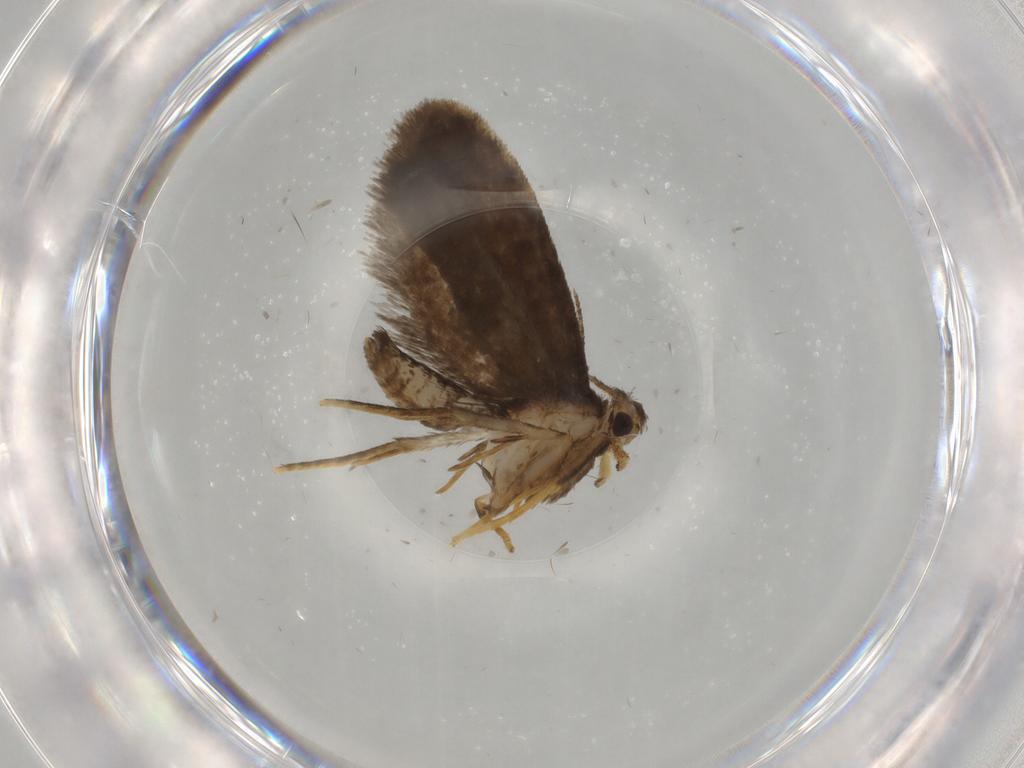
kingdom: Animalia
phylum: Arthropoda
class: Insecta
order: Lepidoptera
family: Psychidae
